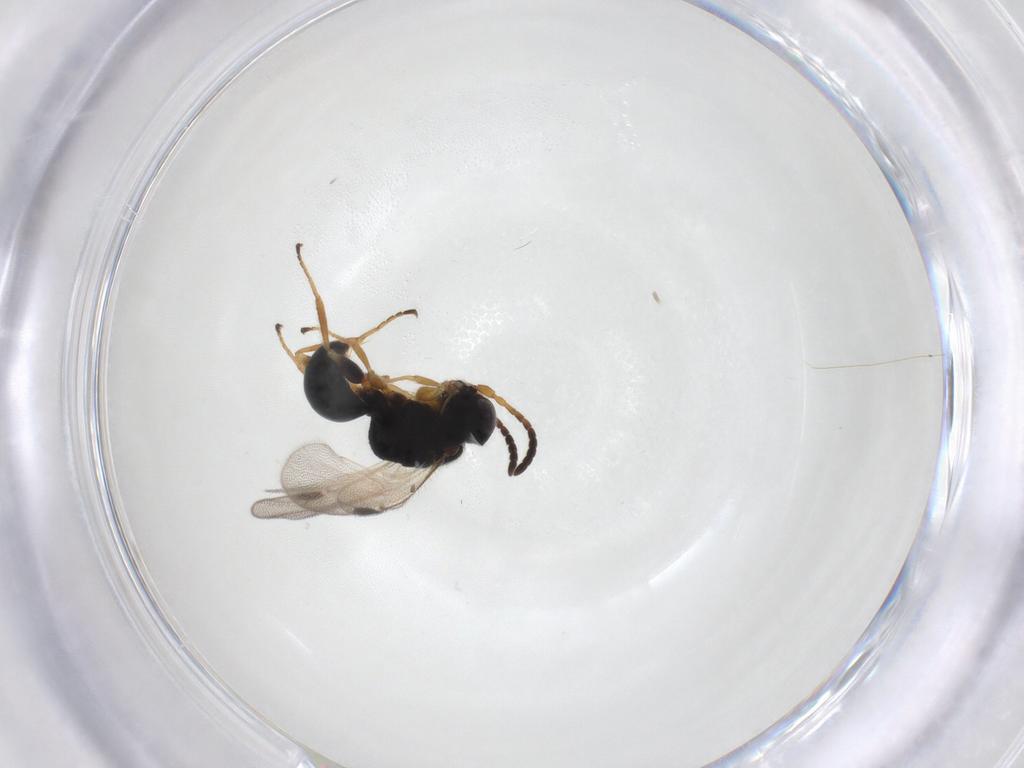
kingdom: Animalia
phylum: Arthropoda
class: Insecta
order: Hymenoptera
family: Dryinidae
